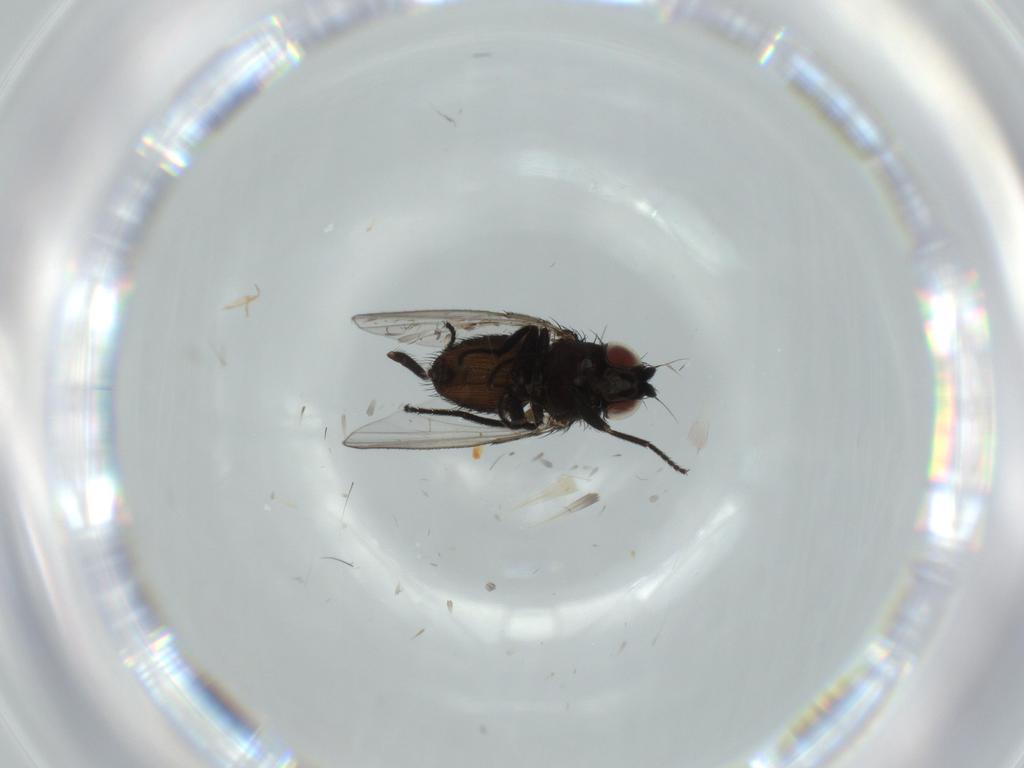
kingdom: Animalia
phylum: Arthropoda
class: Insecta
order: Diptera
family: Milichiidae
